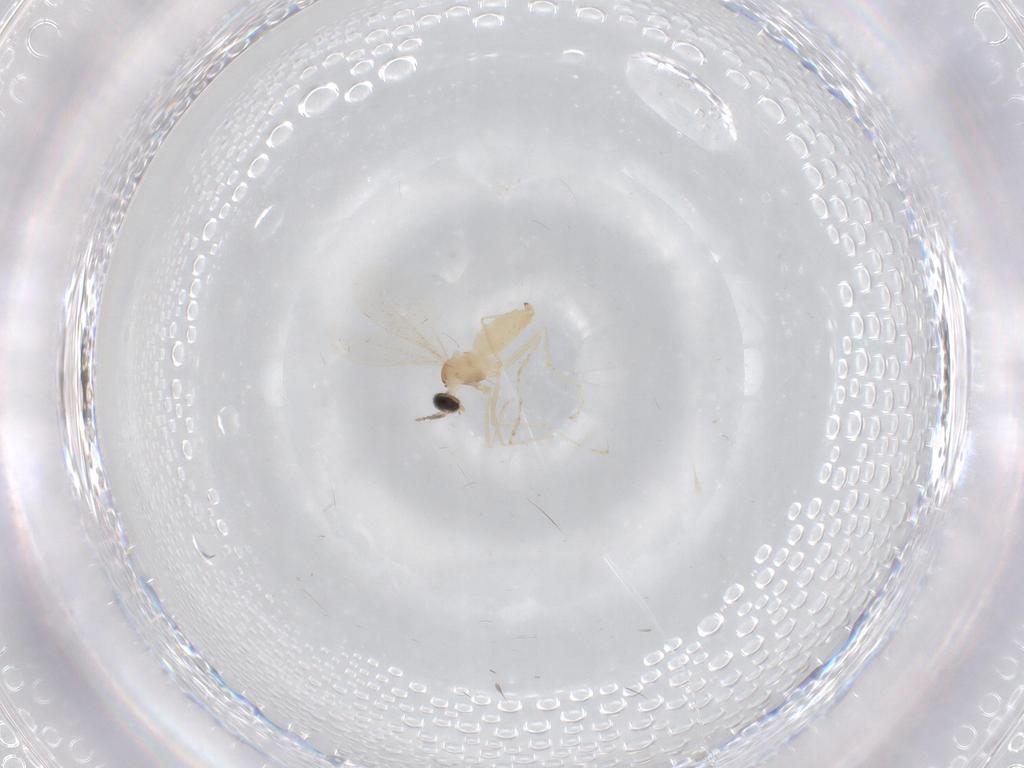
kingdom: Animalia
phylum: Arthropoda
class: Insecta
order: Diptera
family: Cecidomyiidae
